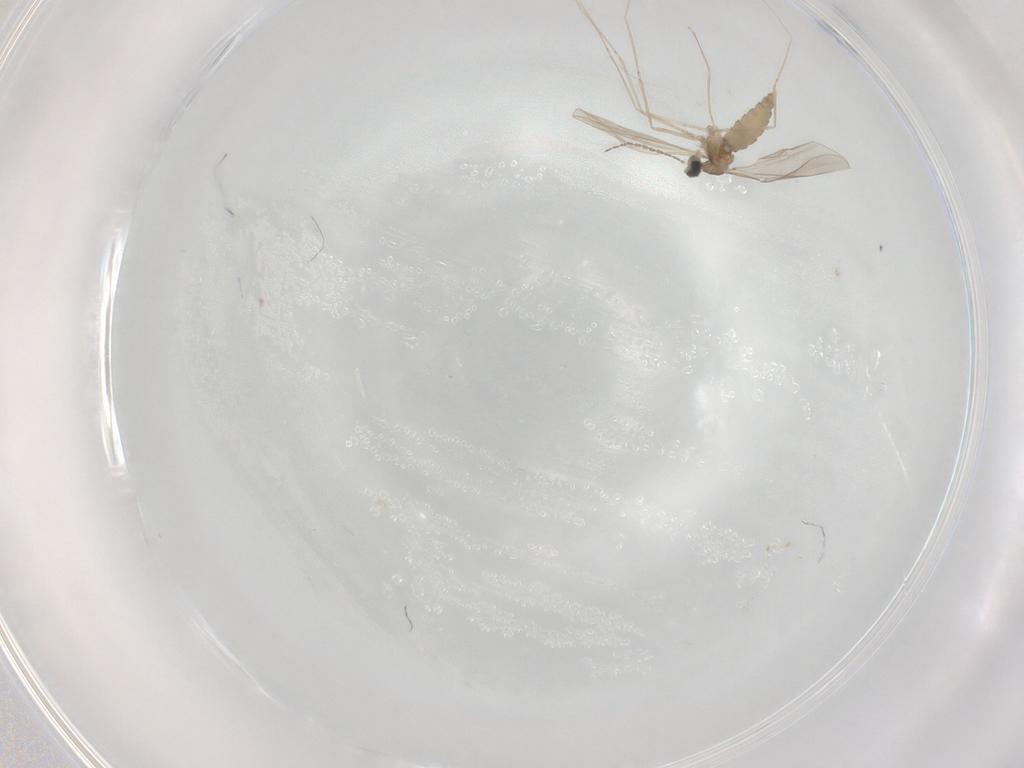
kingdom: Animalia
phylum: Arthropoda
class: Insecta
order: Diptera
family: Cecidomyiidae
